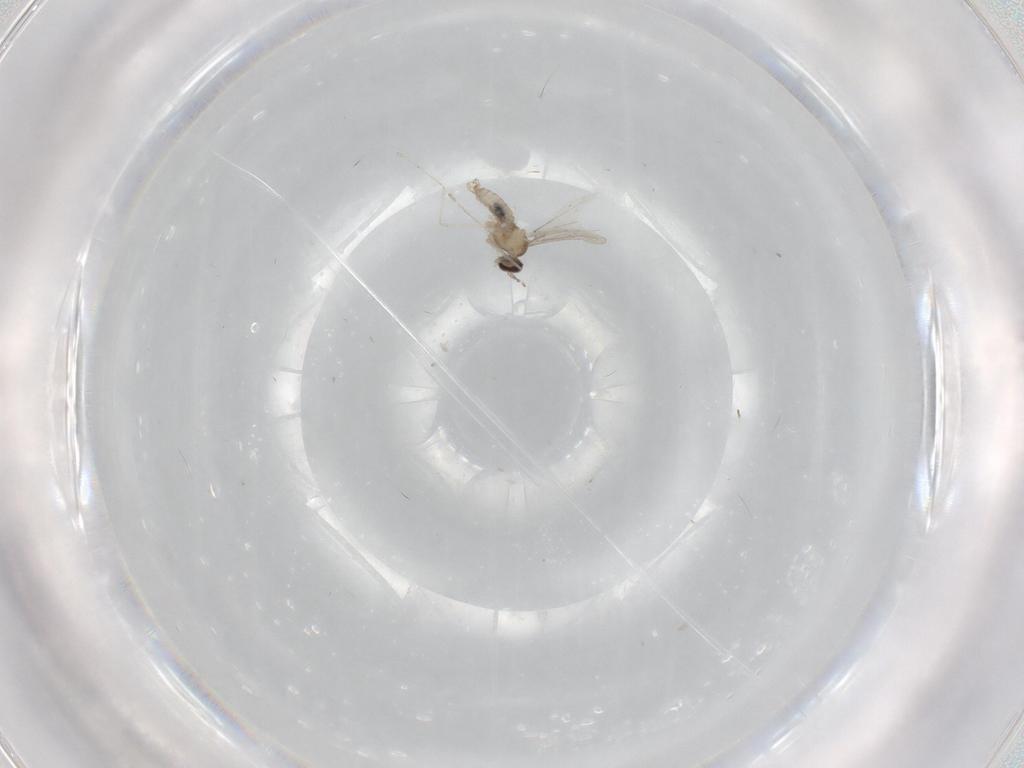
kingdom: Animalia
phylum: Arthropoda
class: Insecta
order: Diptera
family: Cecidomyiidae
